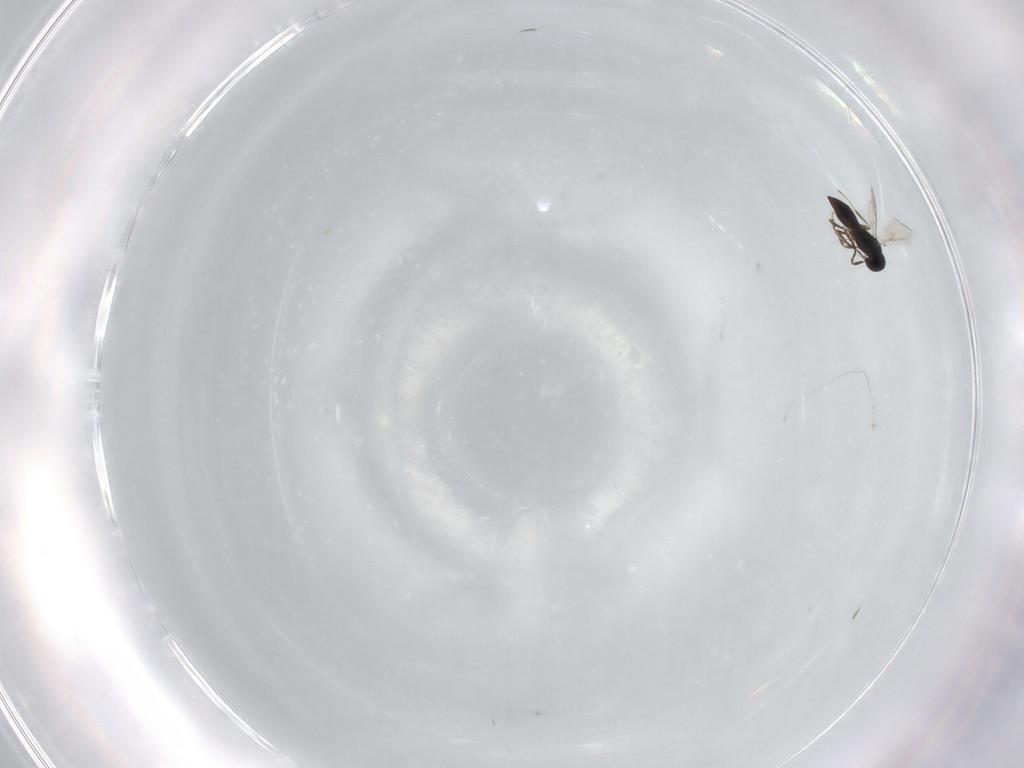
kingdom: Animalia
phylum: Arthropoda
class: Insecta
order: Hymenoptera
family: Scelionidae
